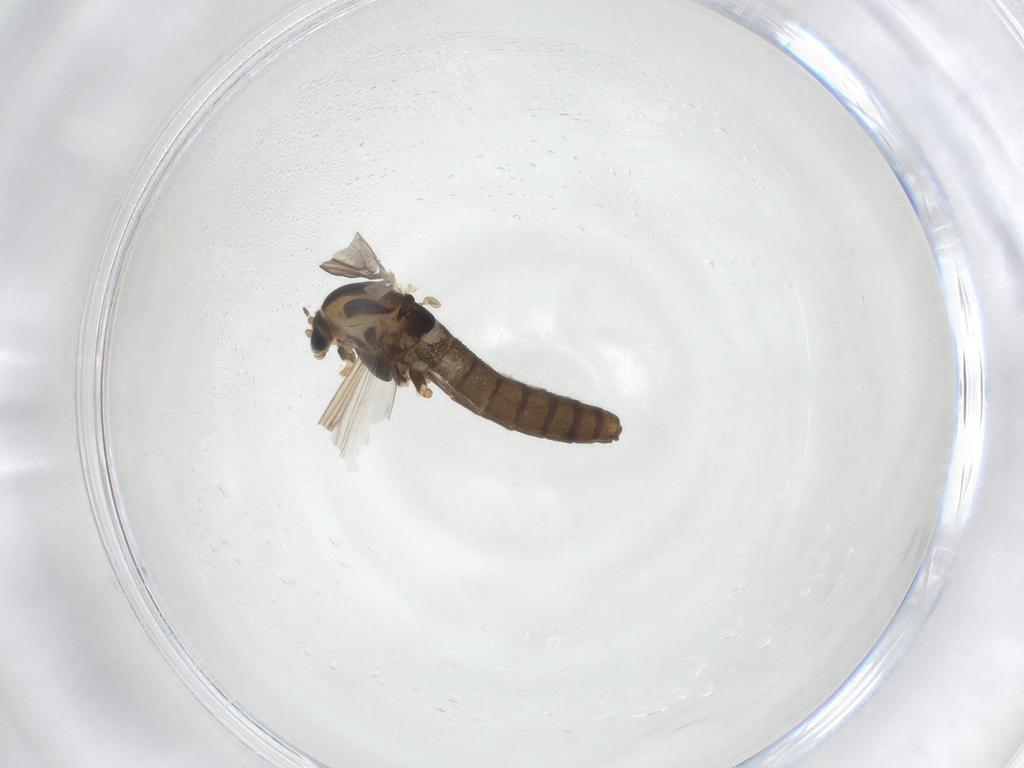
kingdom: Animalia
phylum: Arthropoda
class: Insecta
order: Diptera
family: Chironomidae
